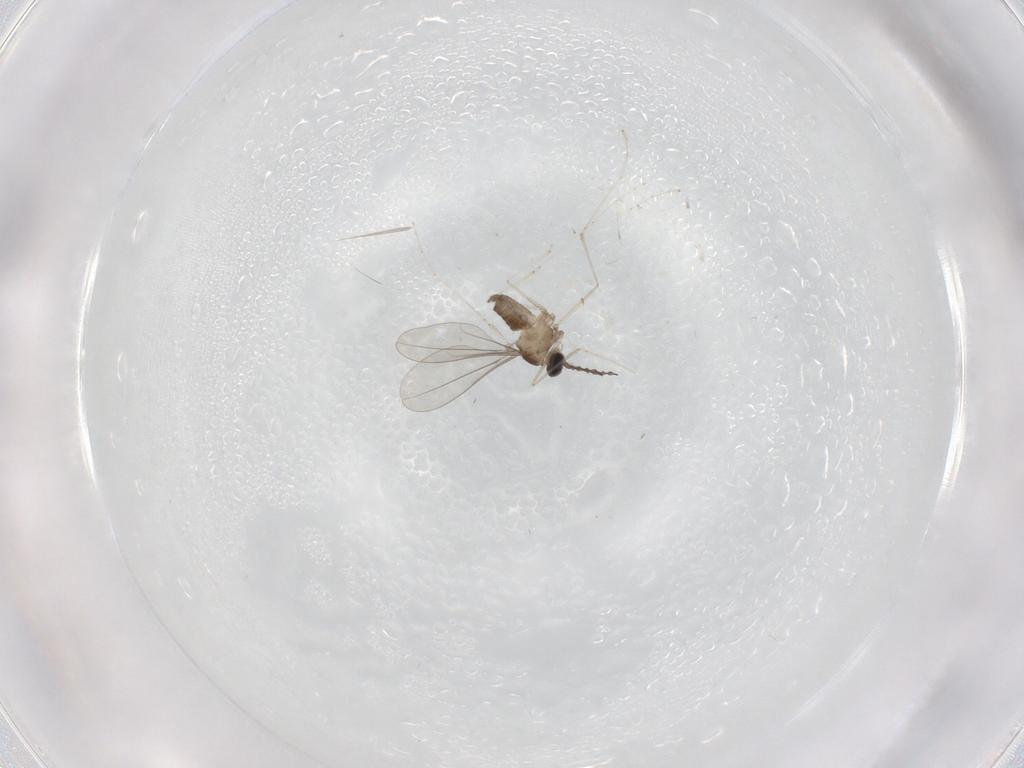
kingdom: Animalia
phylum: Arthropoda
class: Insecta
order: Diptera
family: Cecidomyiidae
